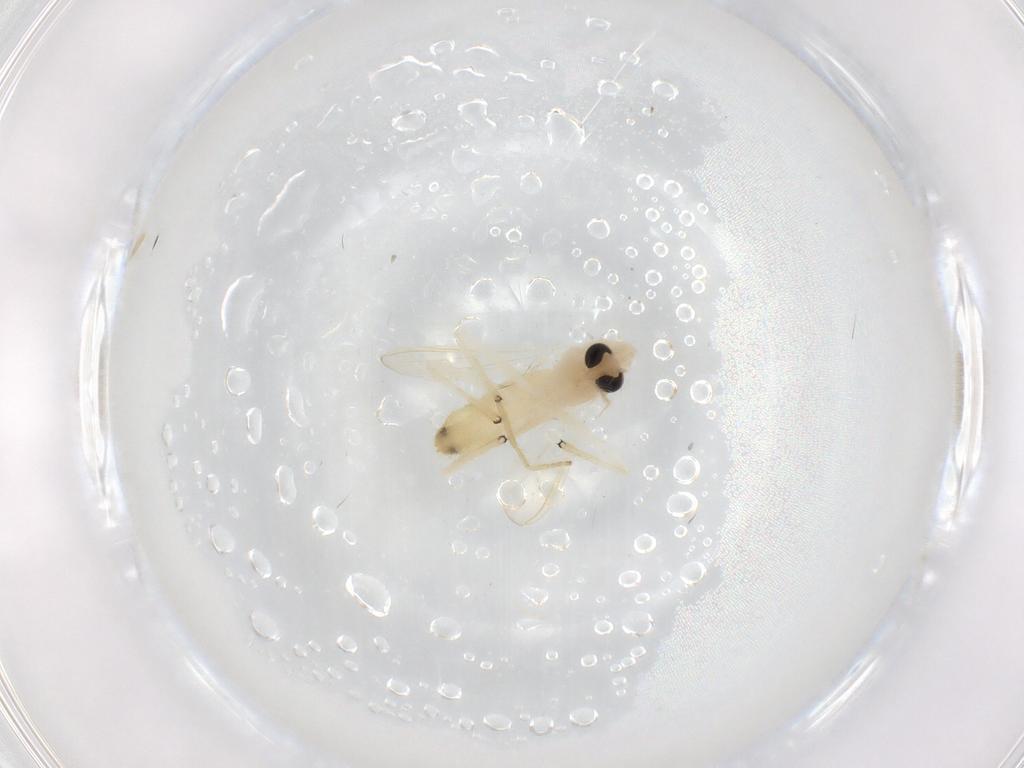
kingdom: Animalia
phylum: Arthropoda
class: Insecta
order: Diptera
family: Chironomidae
